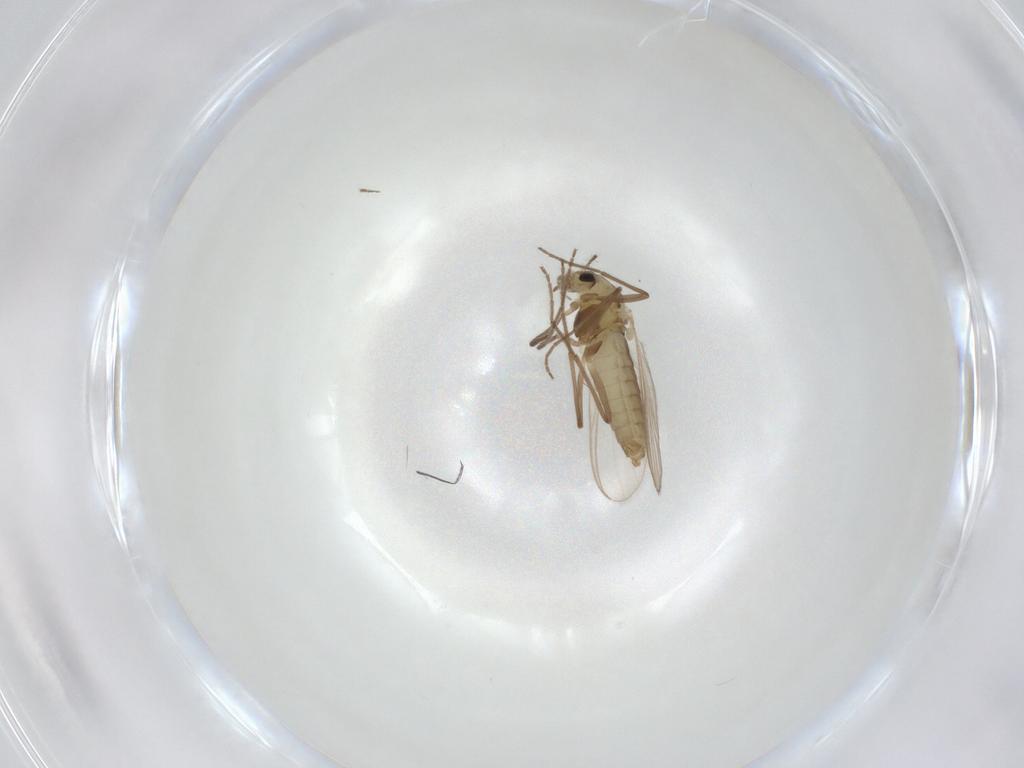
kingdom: Animalia
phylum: Arthropoda
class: Insecta
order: Diptera
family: Chironomidae
